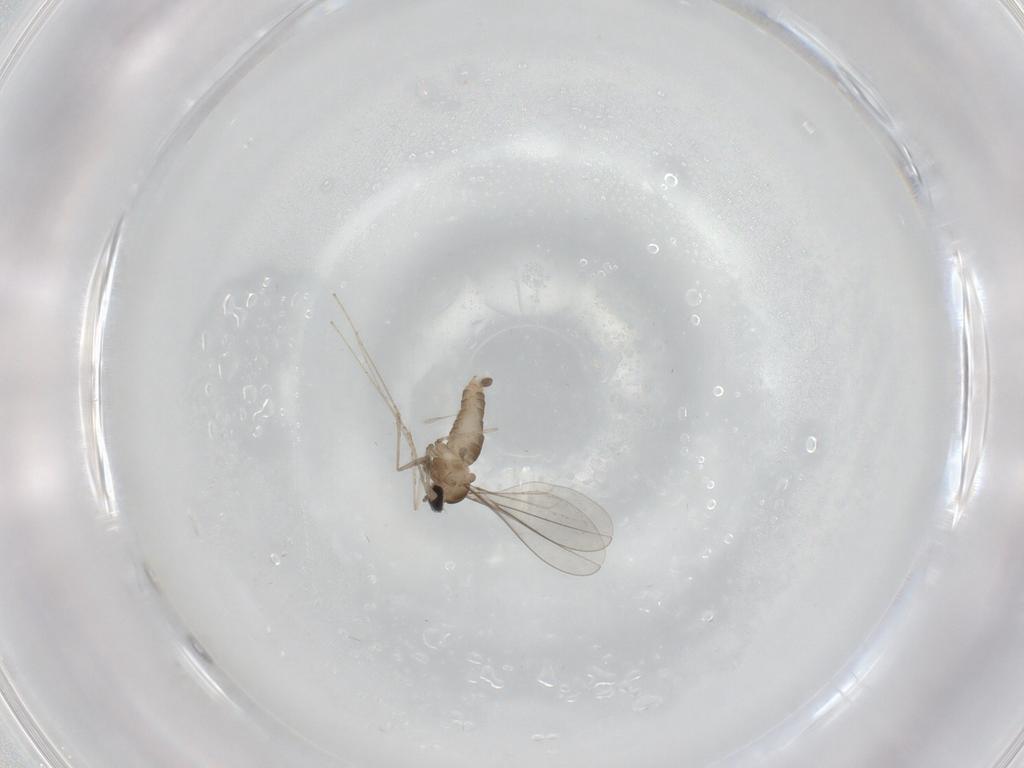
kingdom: Animalia
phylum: Arthropoda
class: Insecta
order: Diptera
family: Cecidomyiidae
